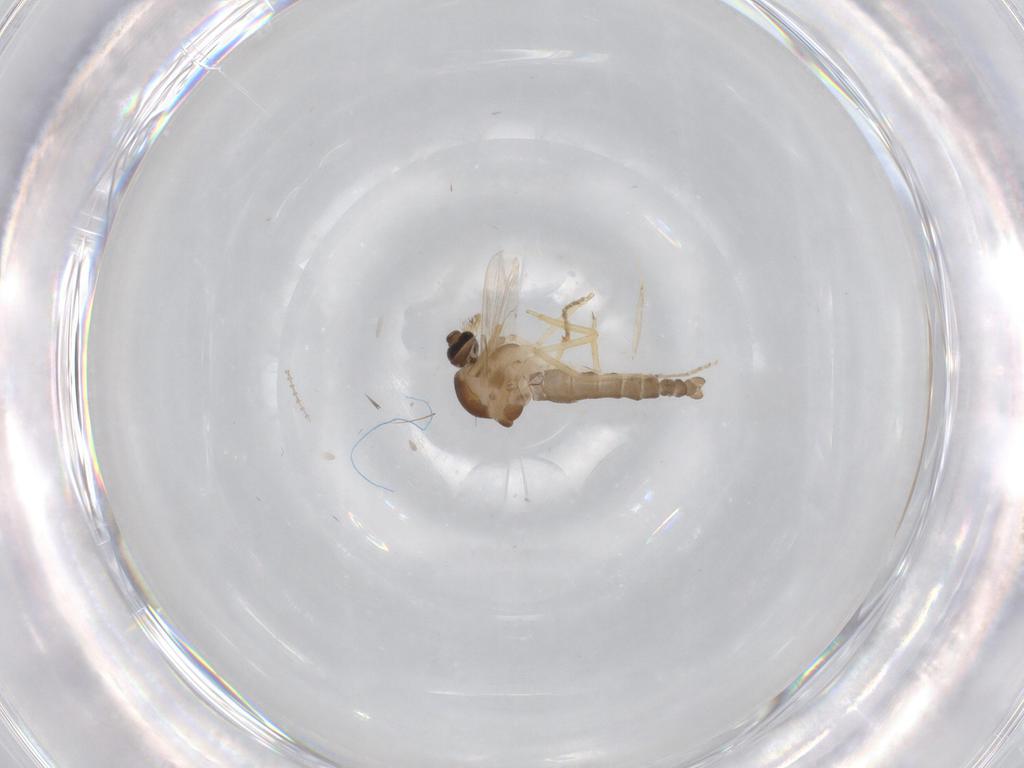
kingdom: Animalia
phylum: Arthropoda
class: Insecta
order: Diptera
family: Ceratopogonidae
